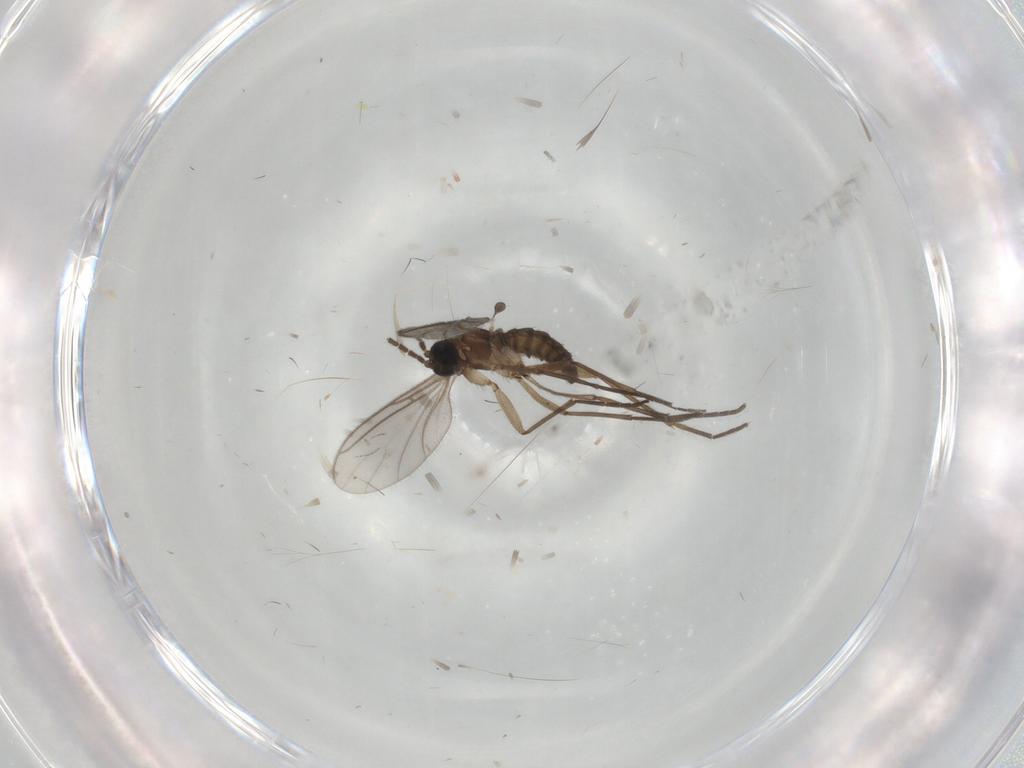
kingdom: Animalia
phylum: Arthropoda
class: Insecta
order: Diptera
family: Sciaridae
